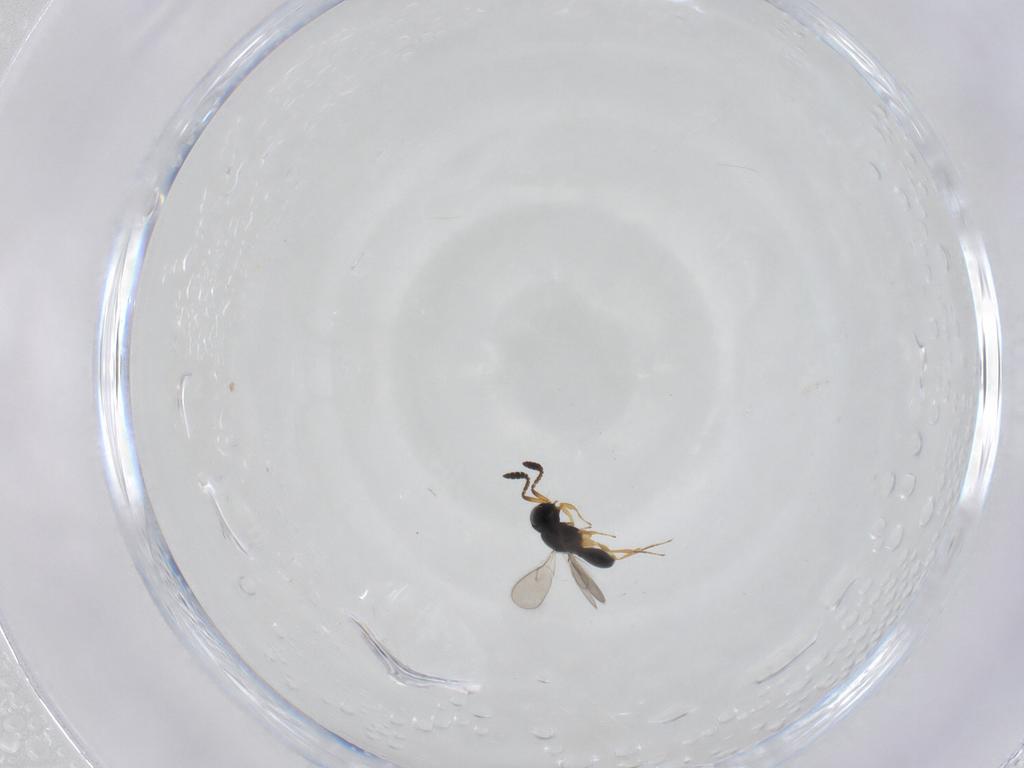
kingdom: Animalia
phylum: Arthropoda
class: Insecta
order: Hymenoptera
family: Scelionidae
